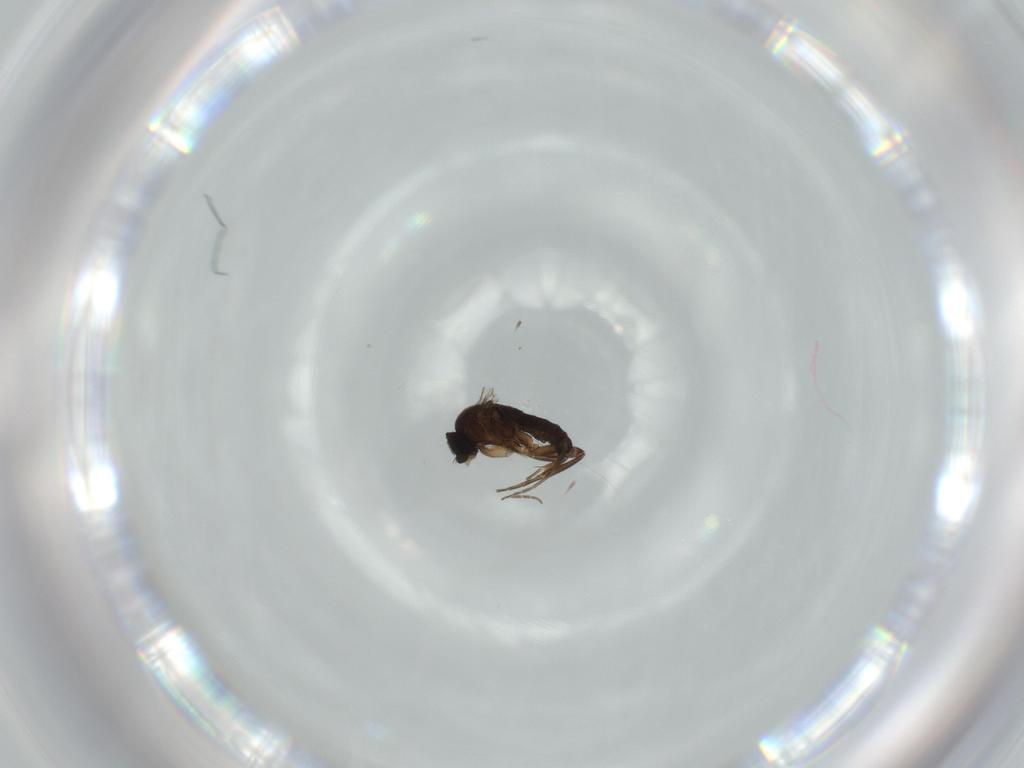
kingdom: Animalia
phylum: Arthropoda
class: Insecta
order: Diptera
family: Phoridae
